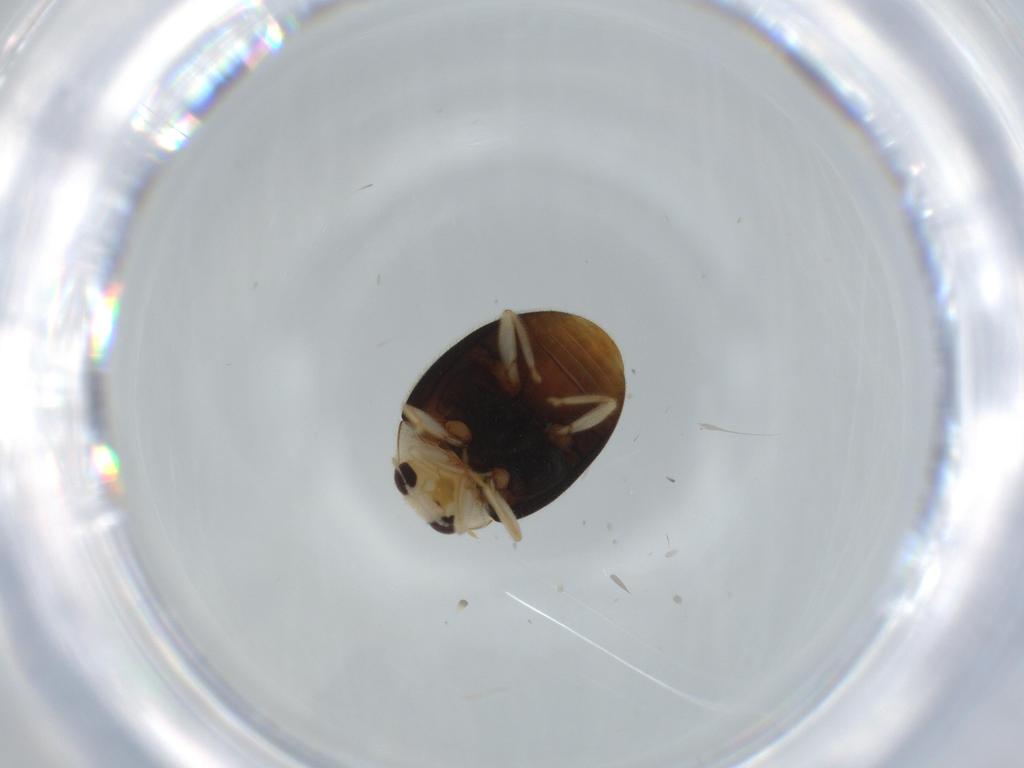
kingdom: Animalia
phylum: Arthropoda
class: Insecta
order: Coleoptera
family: Coccinellidae
